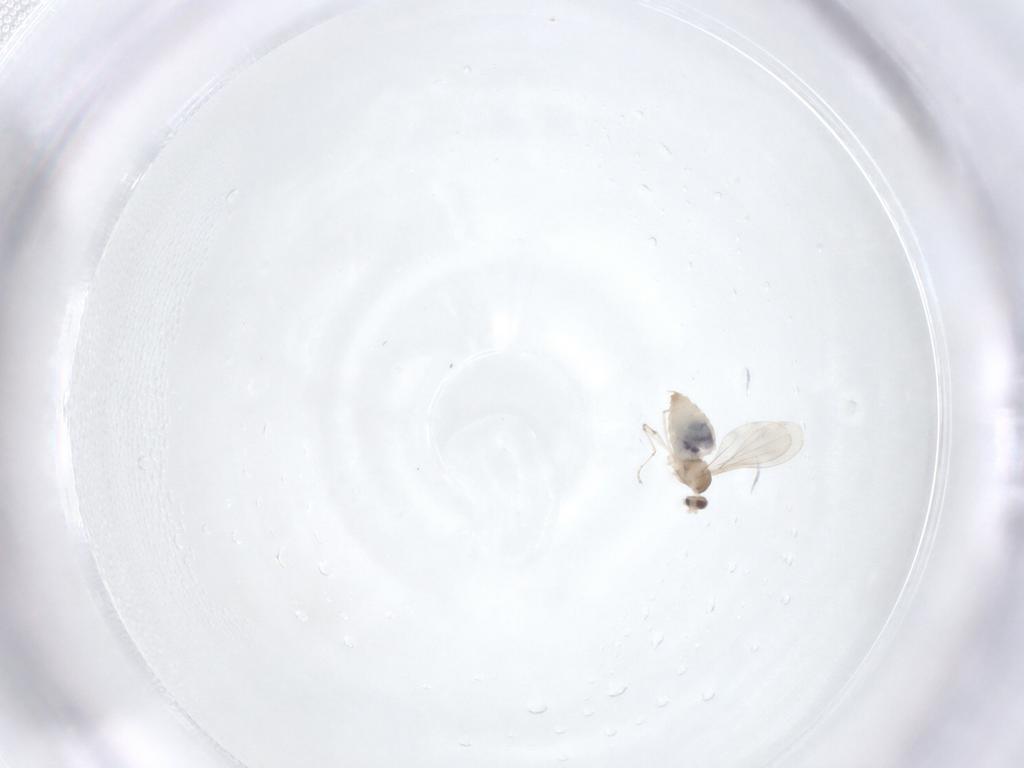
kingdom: Animalia
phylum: Arthropoda
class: Insecta
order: Diptera
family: Cecidomyiidae
